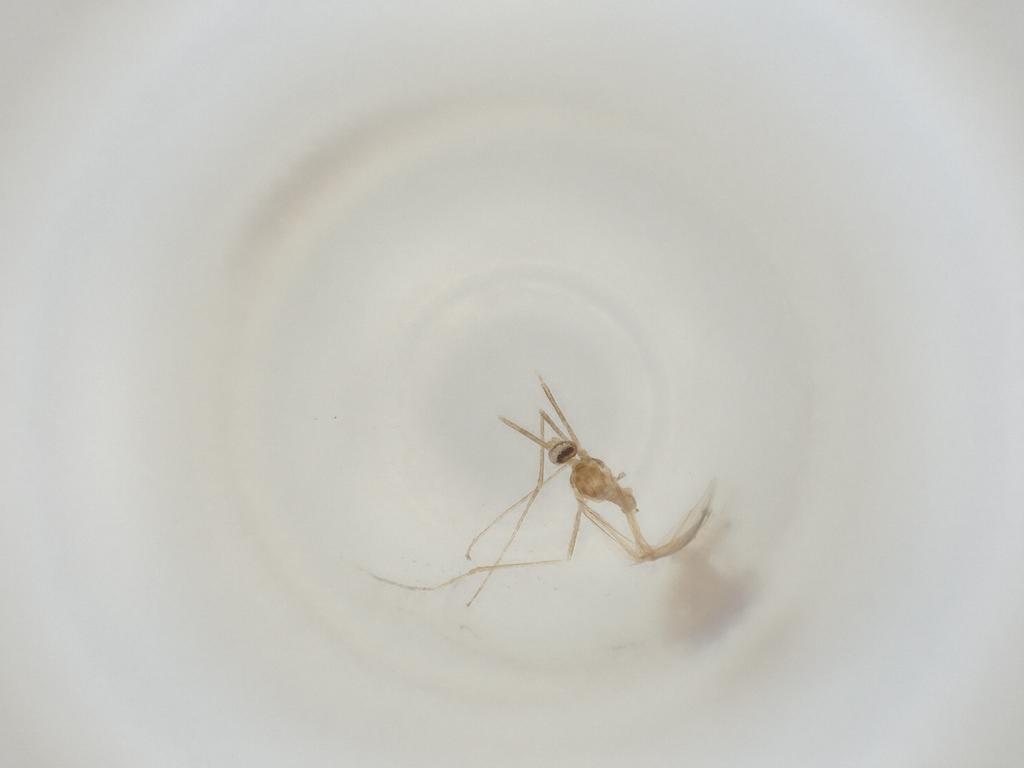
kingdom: Animalia
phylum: Arthropoda
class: Insecta
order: Diptera
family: Cecidomyiidae
